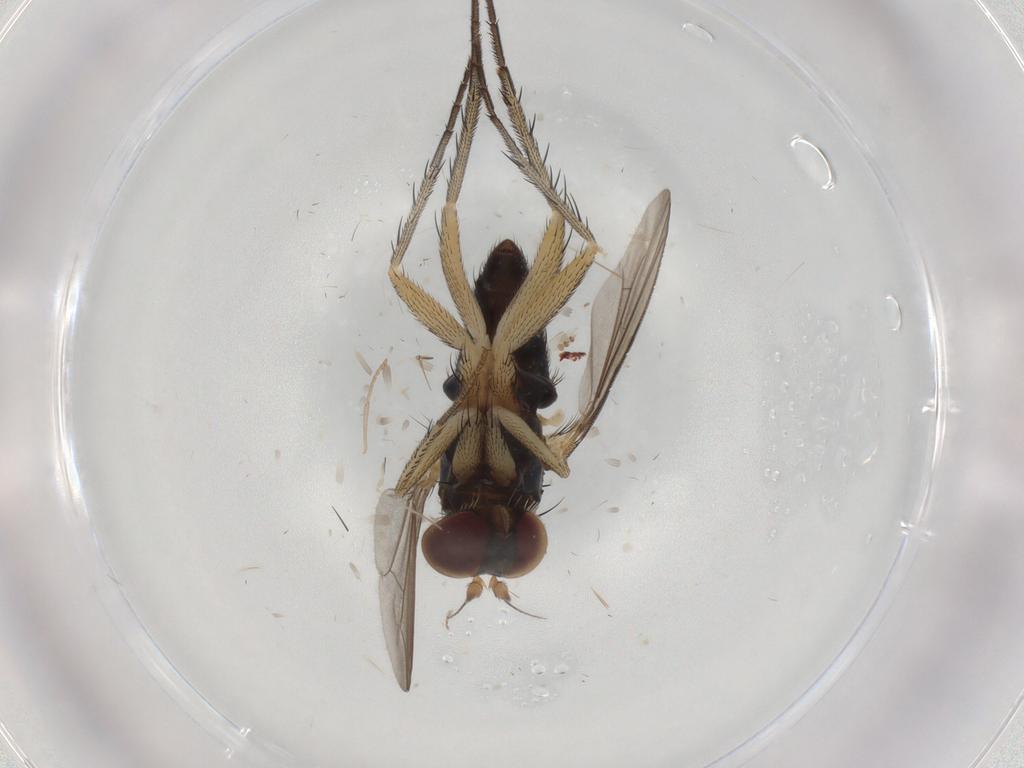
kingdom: Animalia
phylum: Arthropoda
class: Insecta
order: Diptera
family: Dolichopodidae
